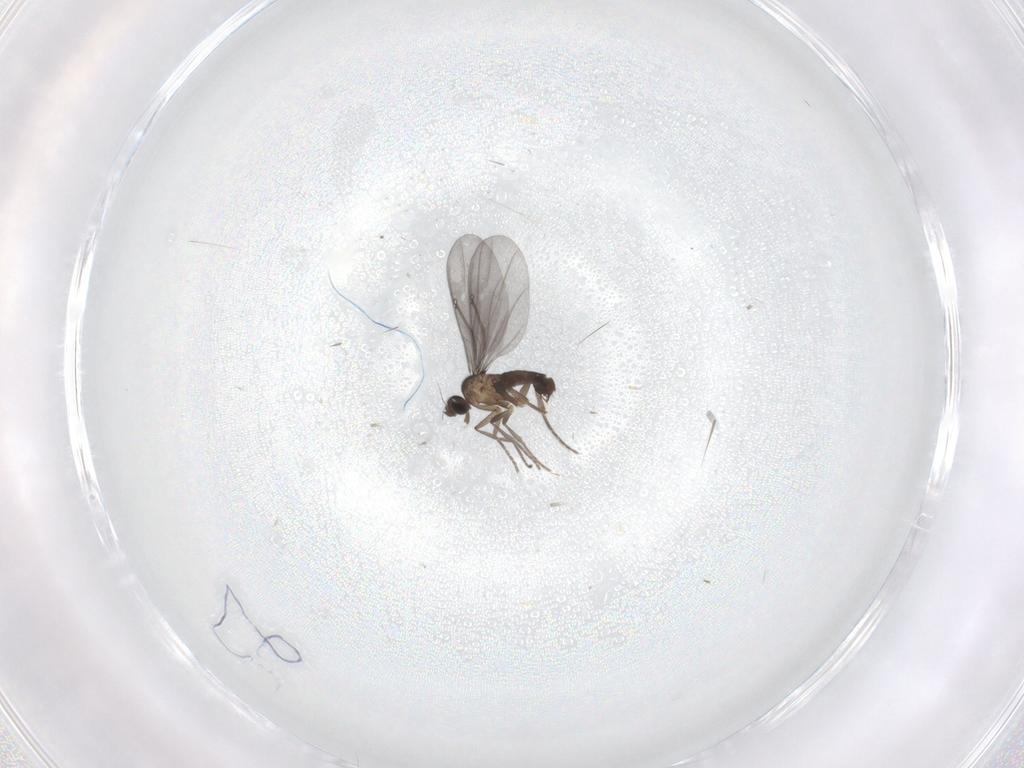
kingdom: Animalia
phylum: Arthropoda
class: Insecta
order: Diptera
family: Phoridae
